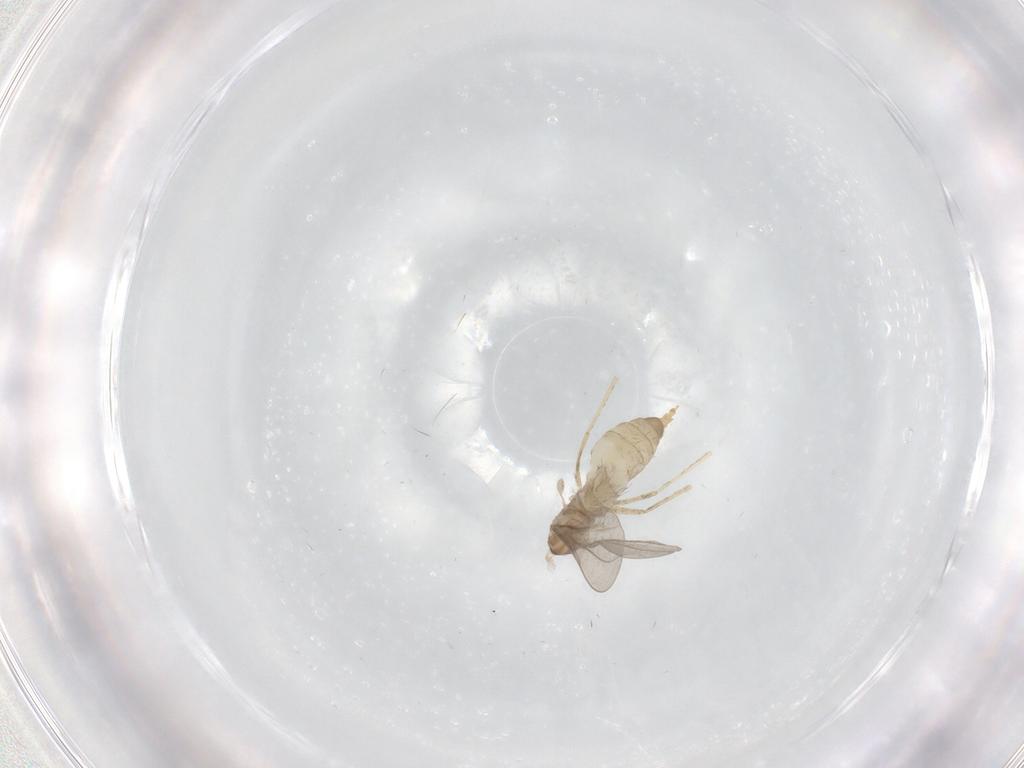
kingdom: Animalia
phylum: Arthropoda
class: Insecta
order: Diptera
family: Cecidomyiidae
